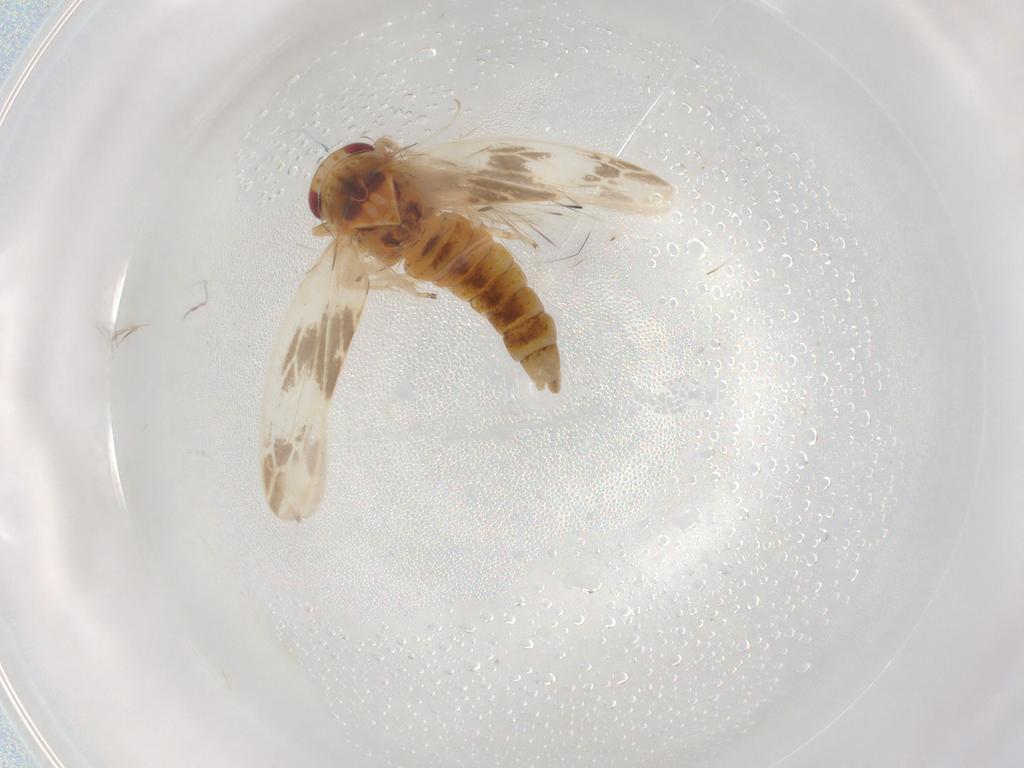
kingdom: Animalia
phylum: Arthropoda
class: Insecta
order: Hemiptera
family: Cicadellidae
